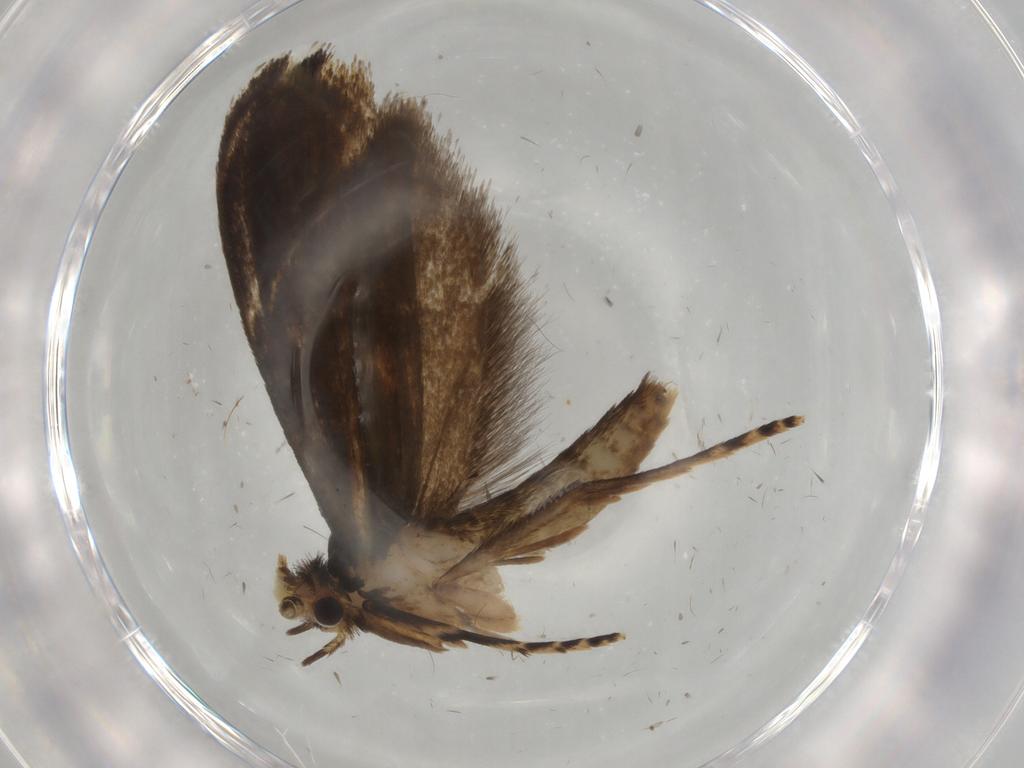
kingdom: Animalia
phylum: Arthropoda
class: Insecta
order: Lepidoptera
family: Tineidae
